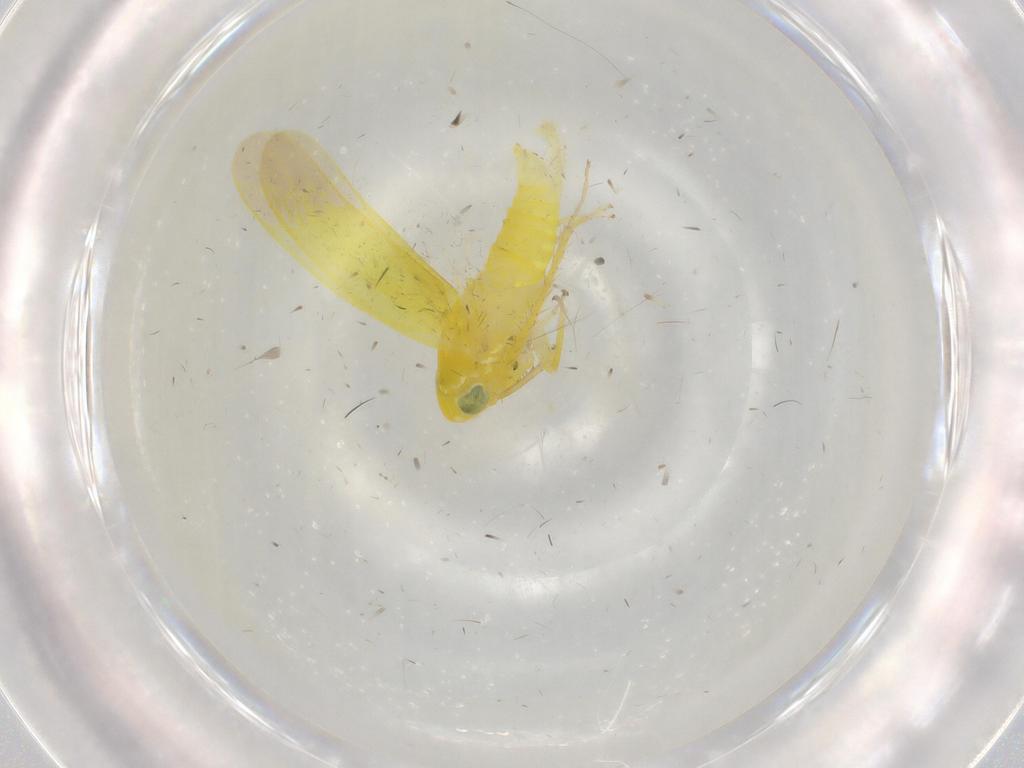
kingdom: Animalia
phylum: Arthropoda
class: Insecta
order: Hemiptera
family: Cicadellidae
